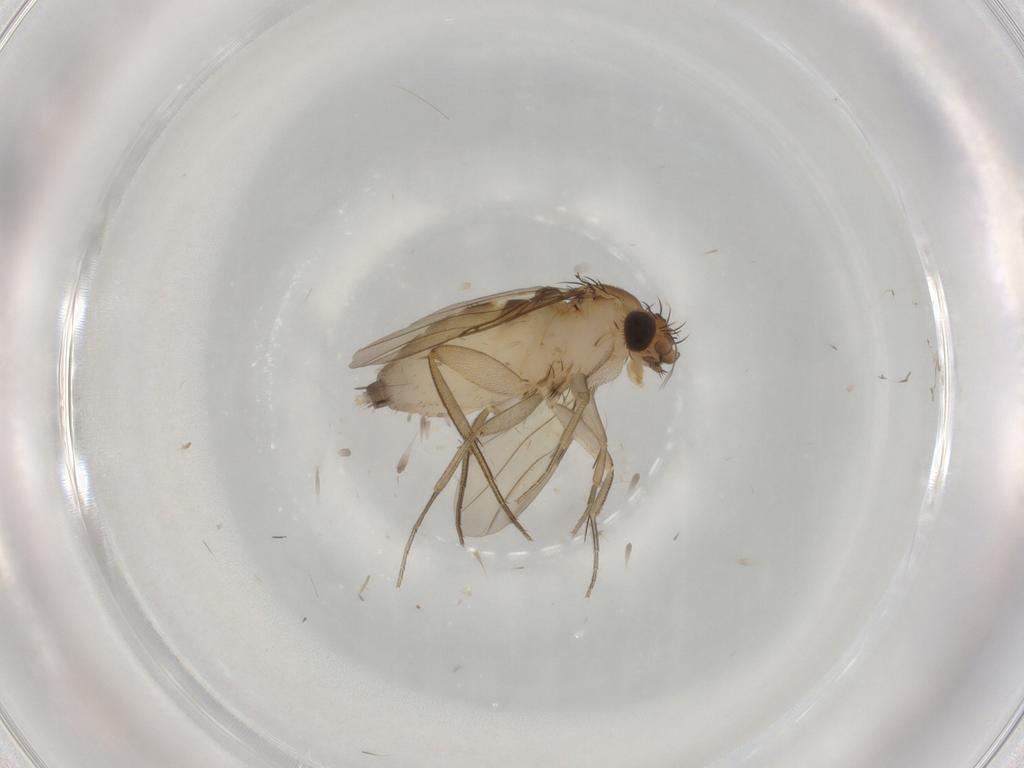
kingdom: Animalia
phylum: Arthropoda
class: Insecta
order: Diptera
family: Phoridae
